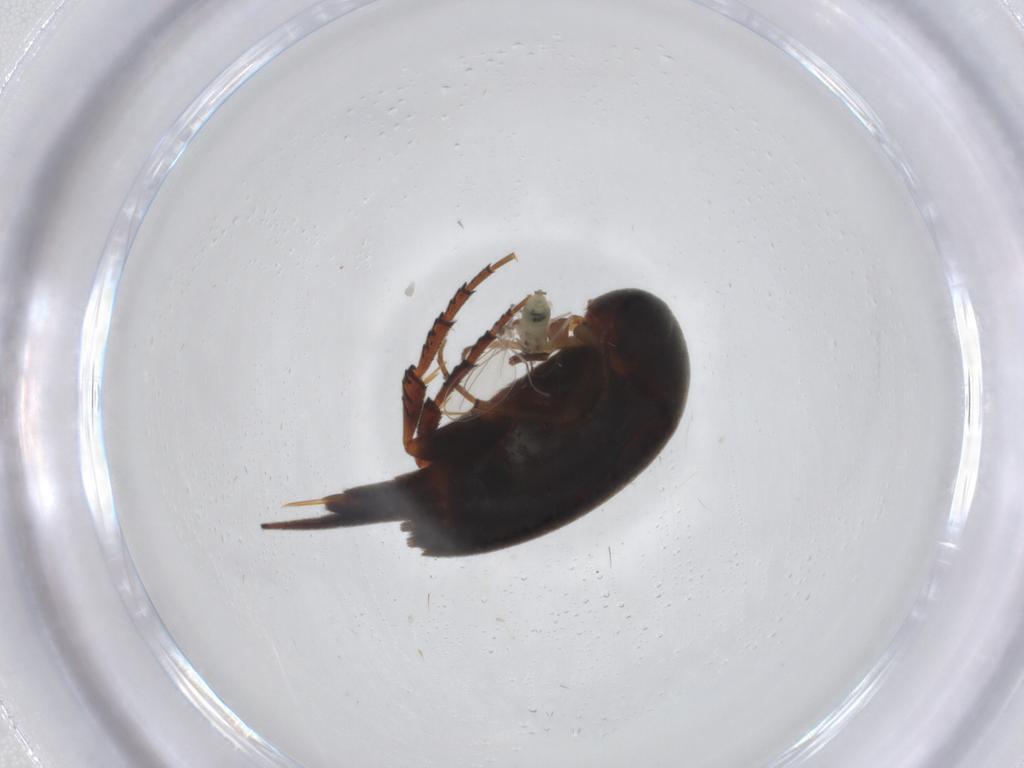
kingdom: Animalia
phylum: Arthropoda
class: Insecta
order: Coleoptera
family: Mordellidae
